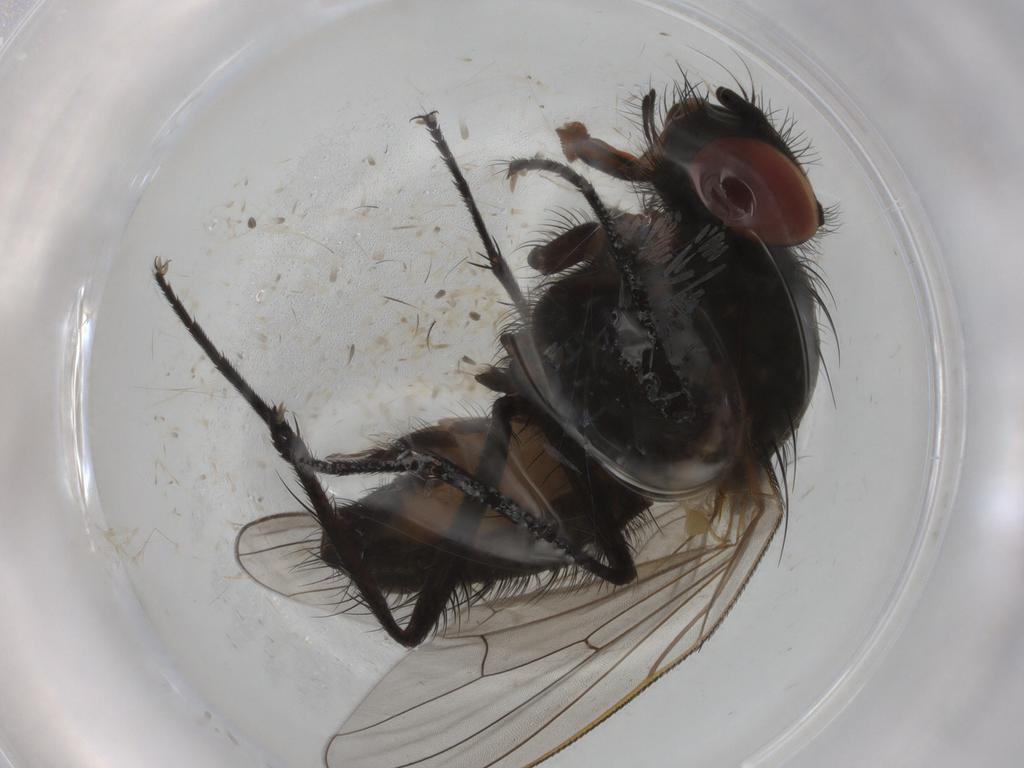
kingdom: Animalia
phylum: Arthropoda
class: Insecta
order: Diptera
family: Anthomyiidae
